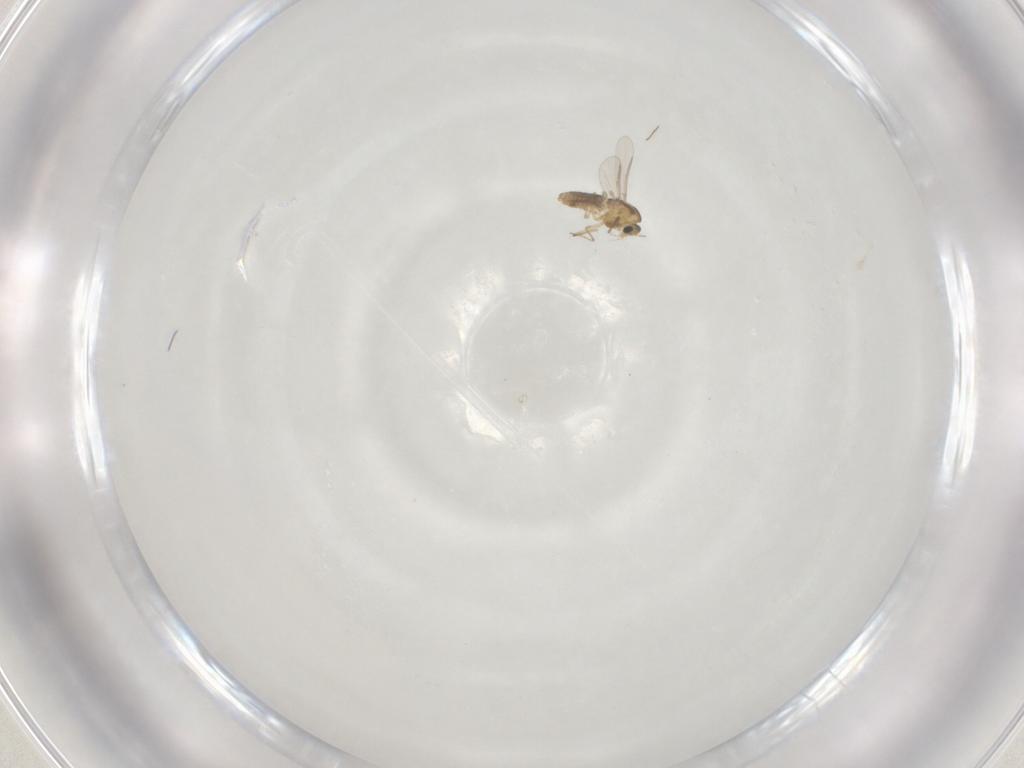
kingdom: Animalia
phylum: Arthropoda
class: Insecta
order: Diptera
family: Chironomidae
